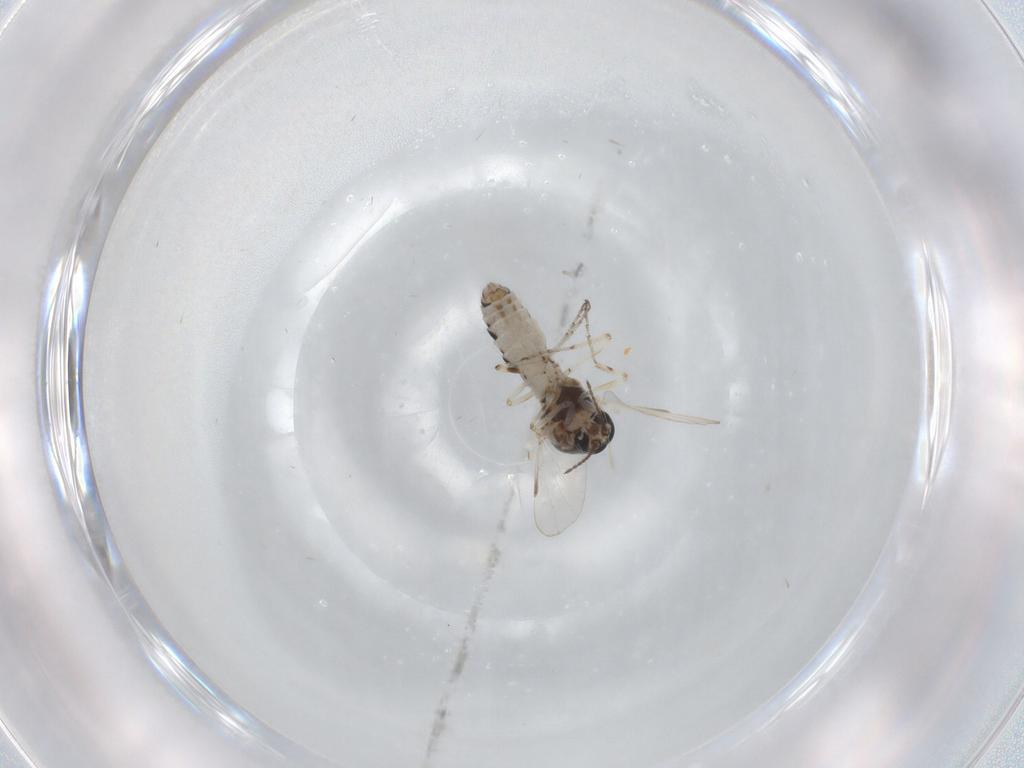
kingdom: Animalia
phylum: Arthropoda
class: Insecta
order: Diptera
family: Ceratopogonidae
